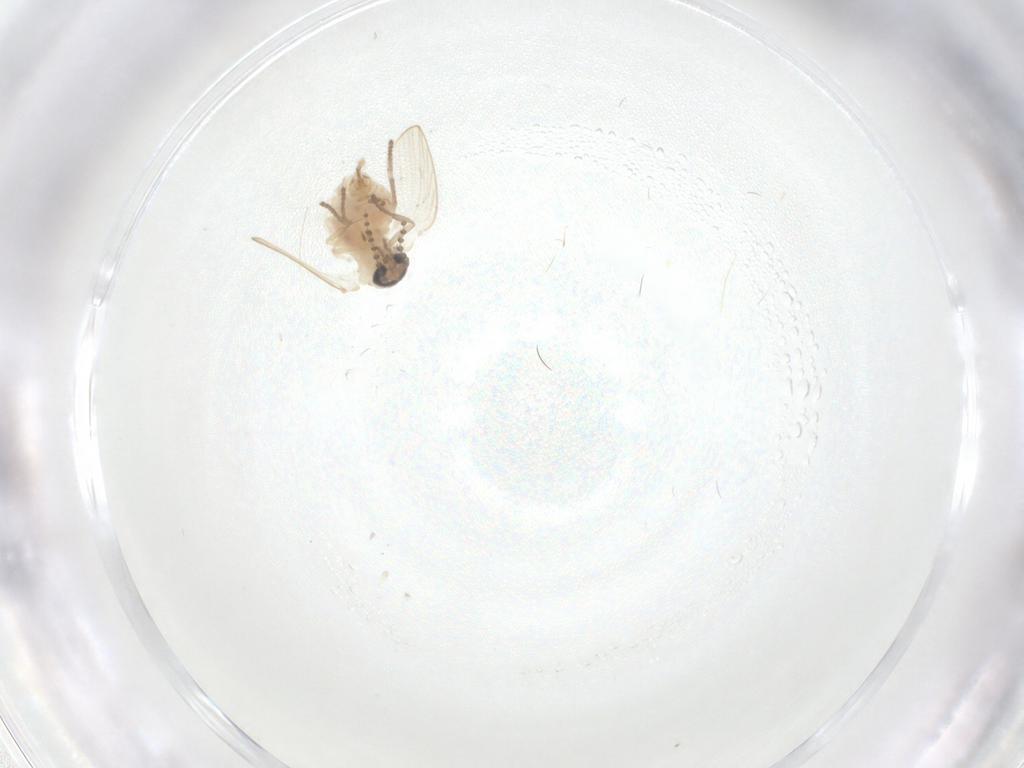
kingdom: Animalia
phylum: Arthropoda
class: Insecta
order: Diptera
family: Psychodidae
